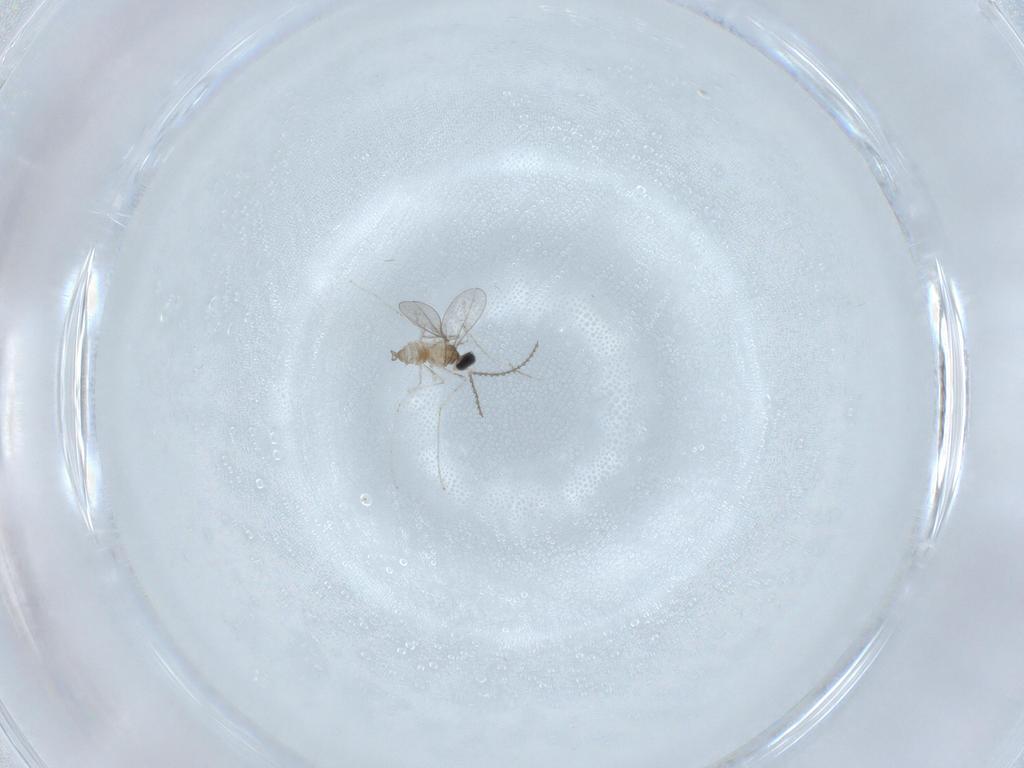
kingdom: Animalia
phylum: Arthropoda
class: Insecta
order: Diptera
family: Cecidomyiidae
